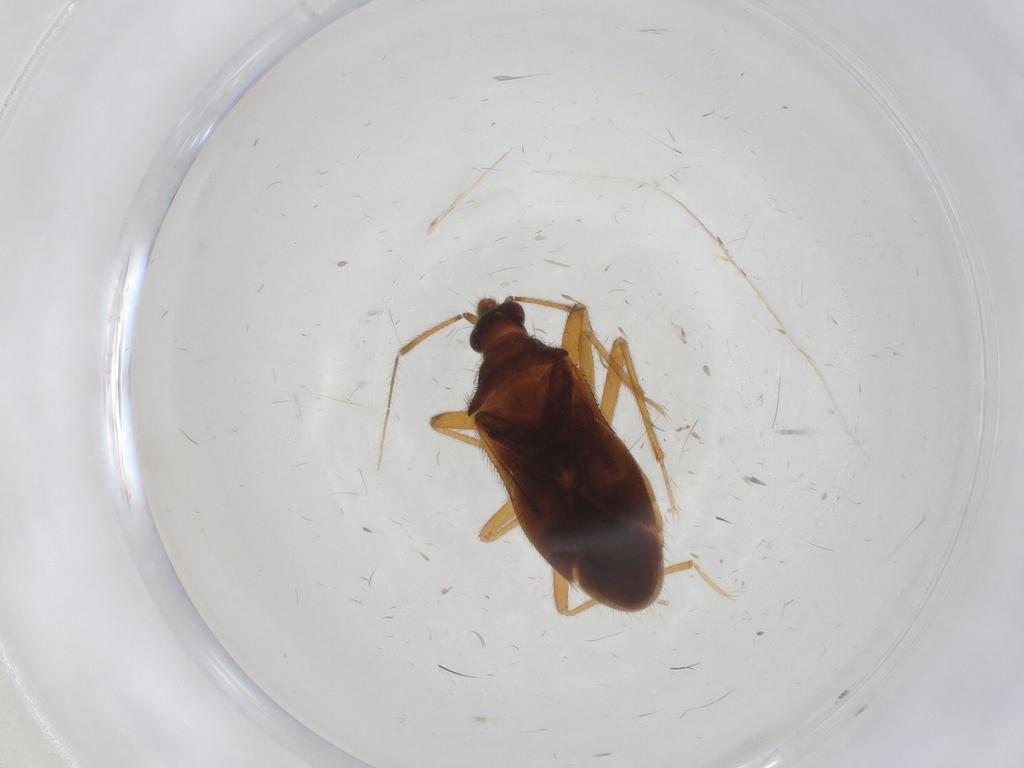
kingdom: Animalia
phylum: Arthropoda
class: Insecta
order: Hemiptera
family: Anthocoridae
